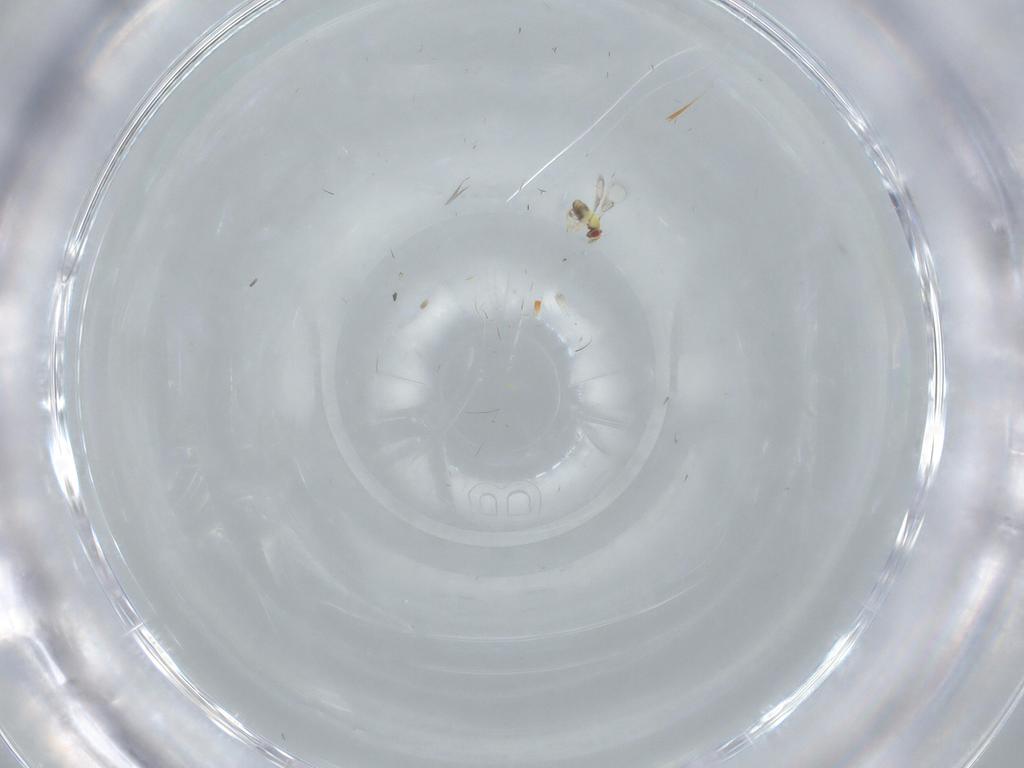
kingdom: Animalia
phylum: Arthropoda
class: Insecta
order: Hymenoptera
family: Trichogrammatidae
